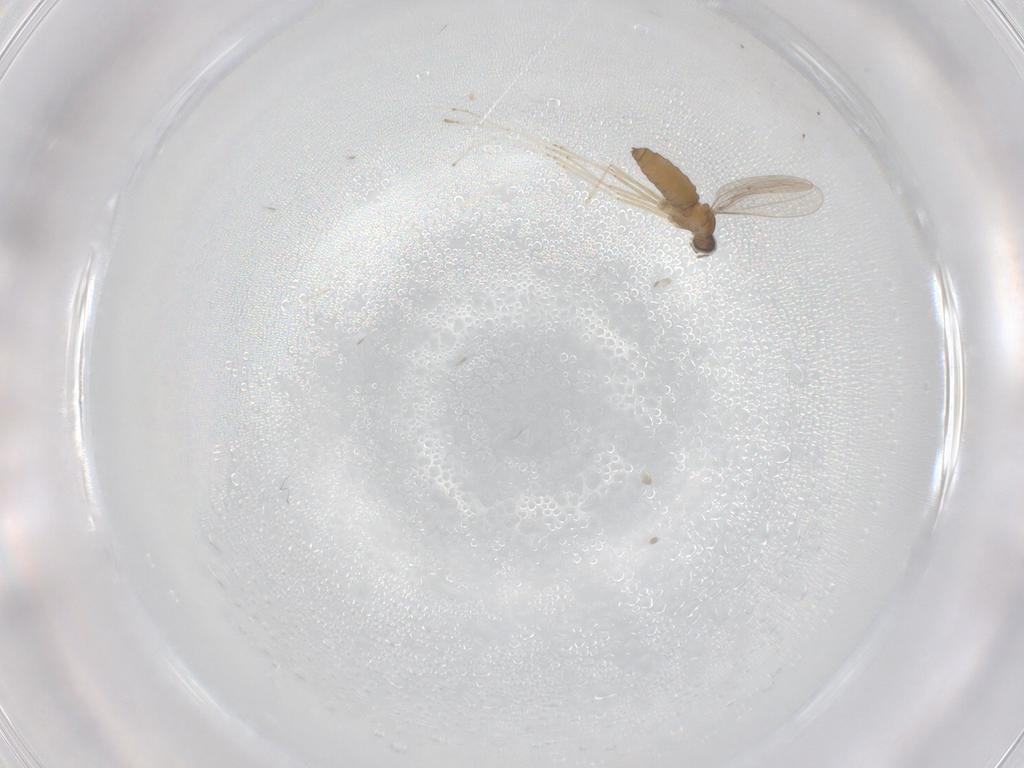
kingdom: Animalia
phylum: Arthropoda
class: Insecta
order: Diptera
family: Cecidomyiidae
